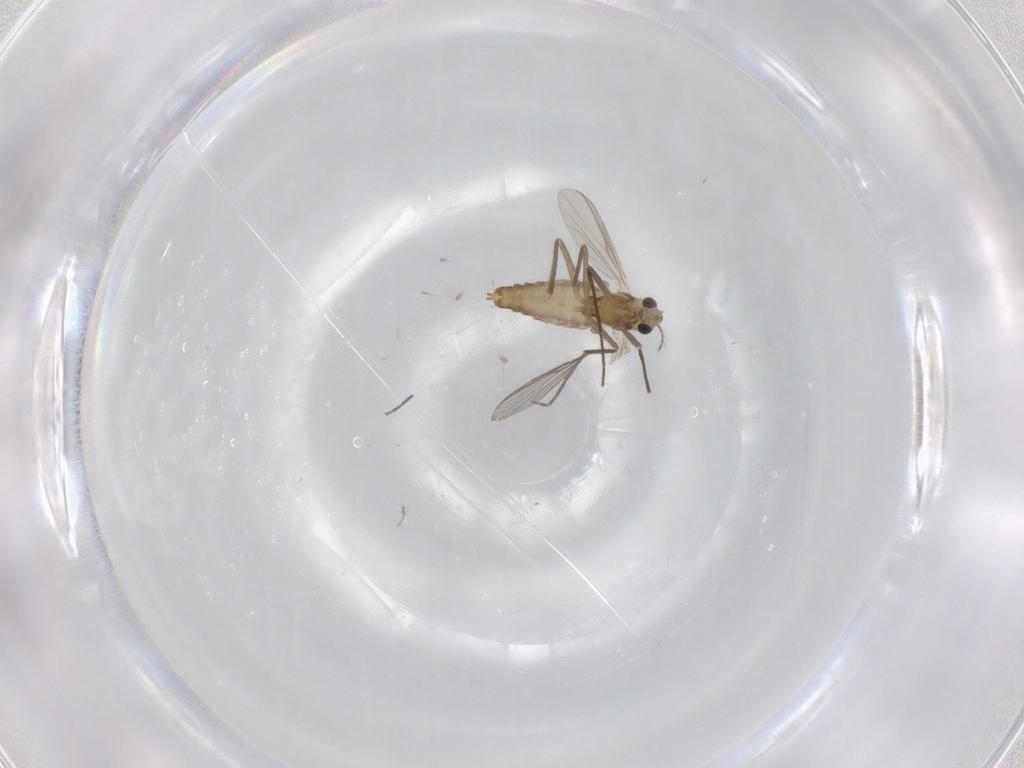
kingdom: Animalia
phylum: Arthropoda
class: Insecta
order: Diptera
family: Chironomidae
